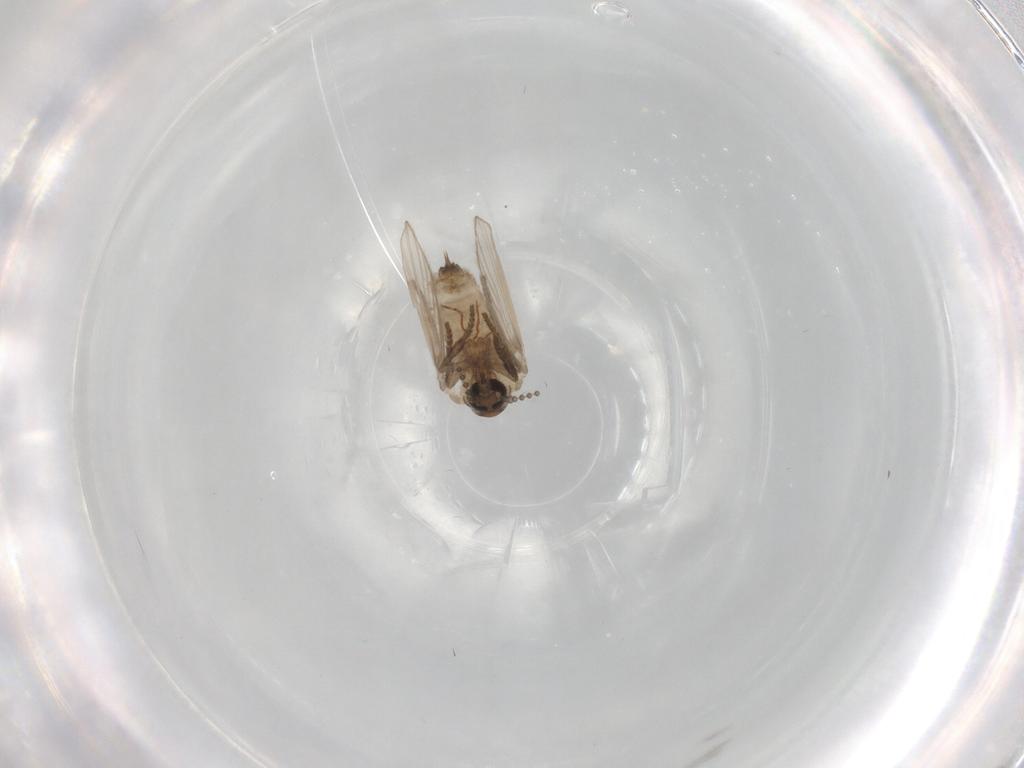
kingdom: Animalia
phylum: Arthropoda
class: Insecta
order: Diptera
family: Psychodidae
